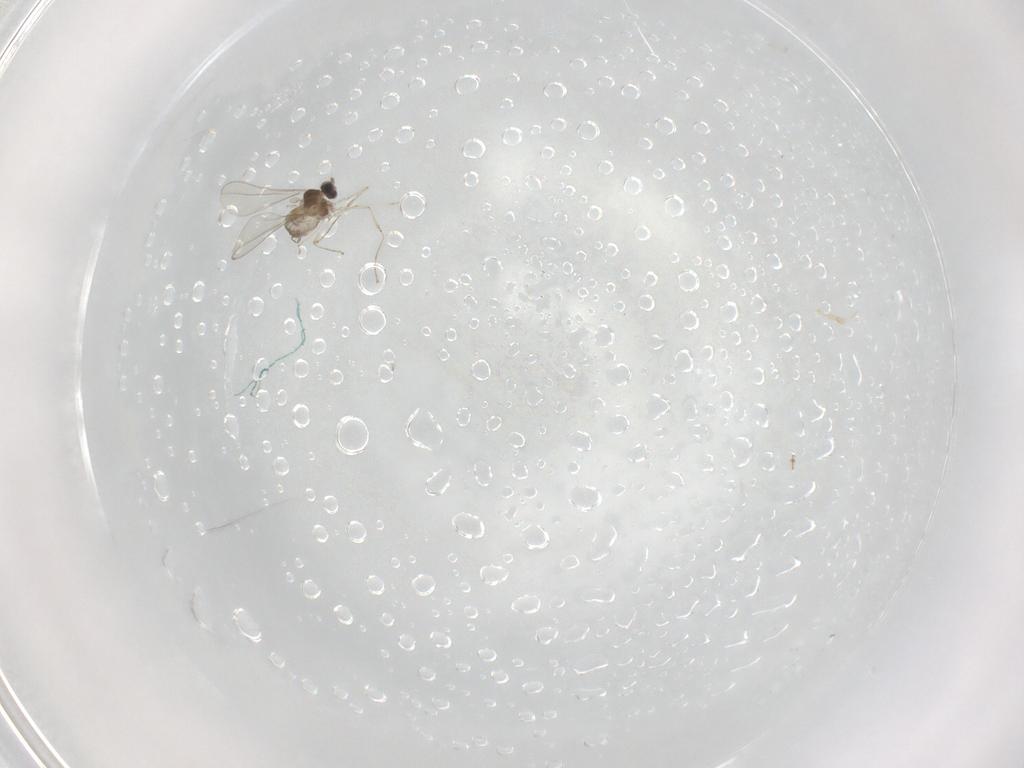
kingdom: Animalia
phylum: Arthropoda
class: Insecta
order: Diptera
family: Cecidomyiidae
